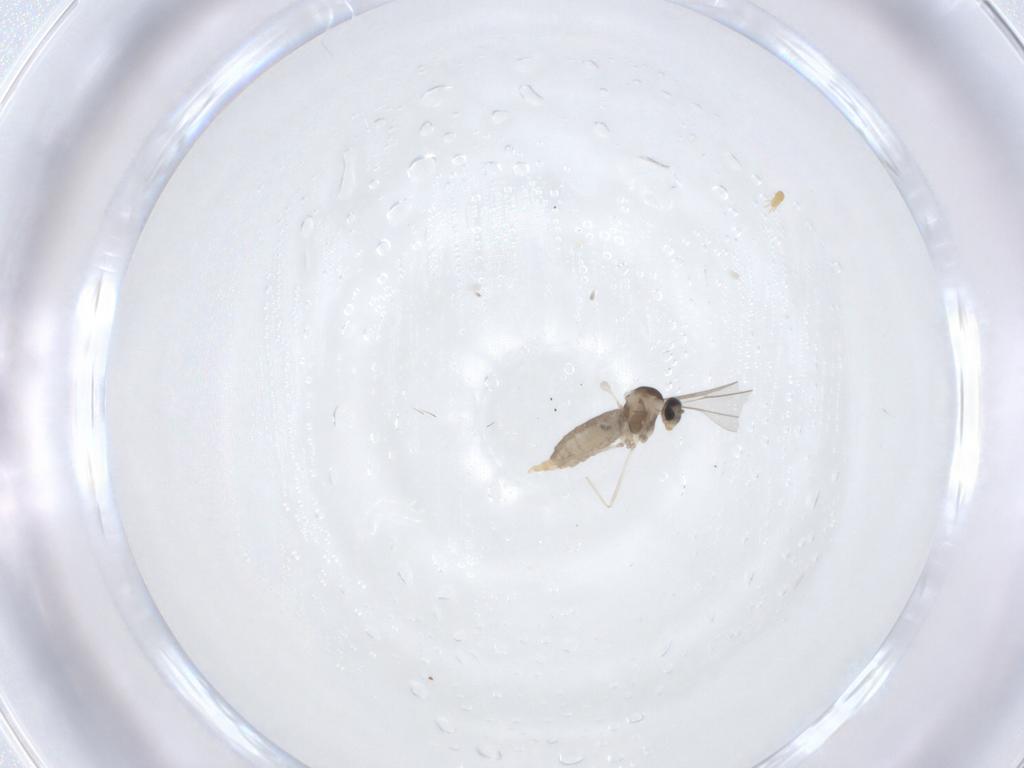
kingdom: Animalia
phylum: Arthropoda
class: Insecta
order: Diptera
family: Cecidomyiidae
